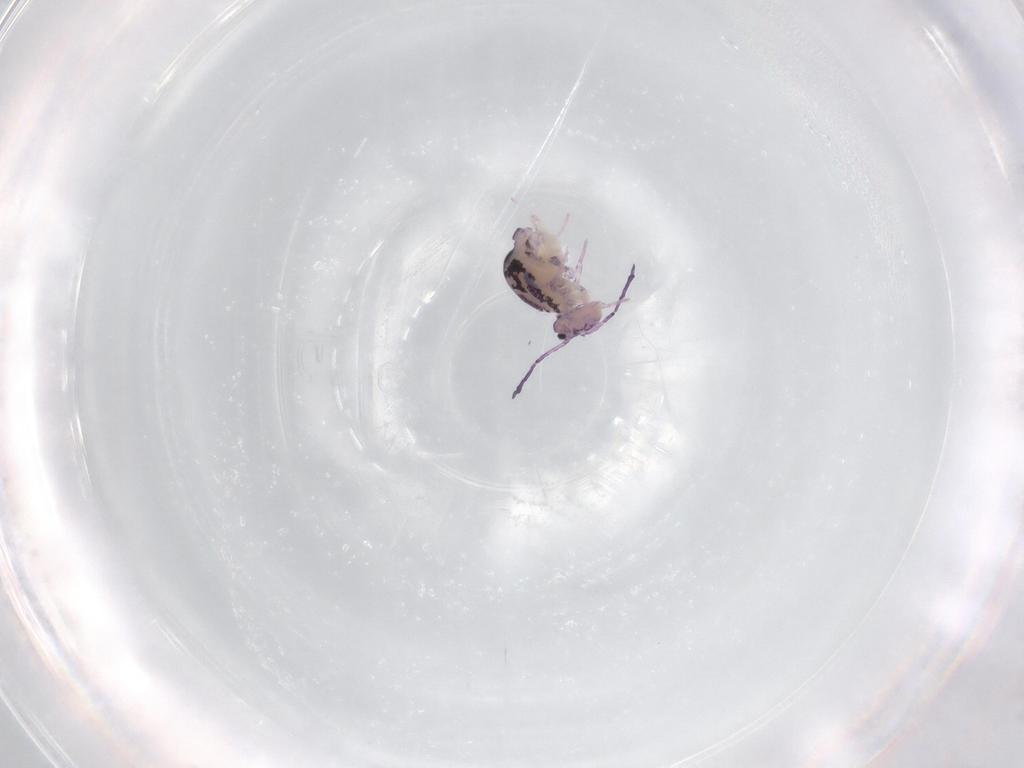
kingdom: Animalia
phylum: Arthropoda
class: Collembola
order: Symphypleona
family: Dicyrtomidae
